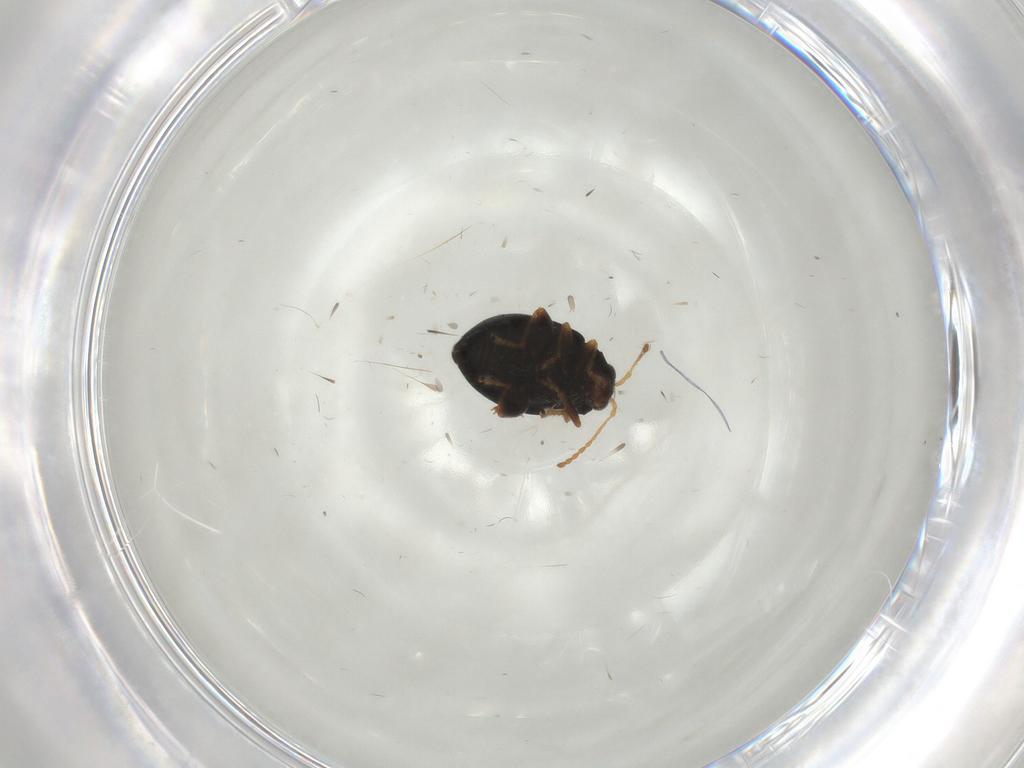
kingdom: Animalia
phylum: Arthropoda
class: Insecta
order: Coleoptera
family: Chrysomelidae
